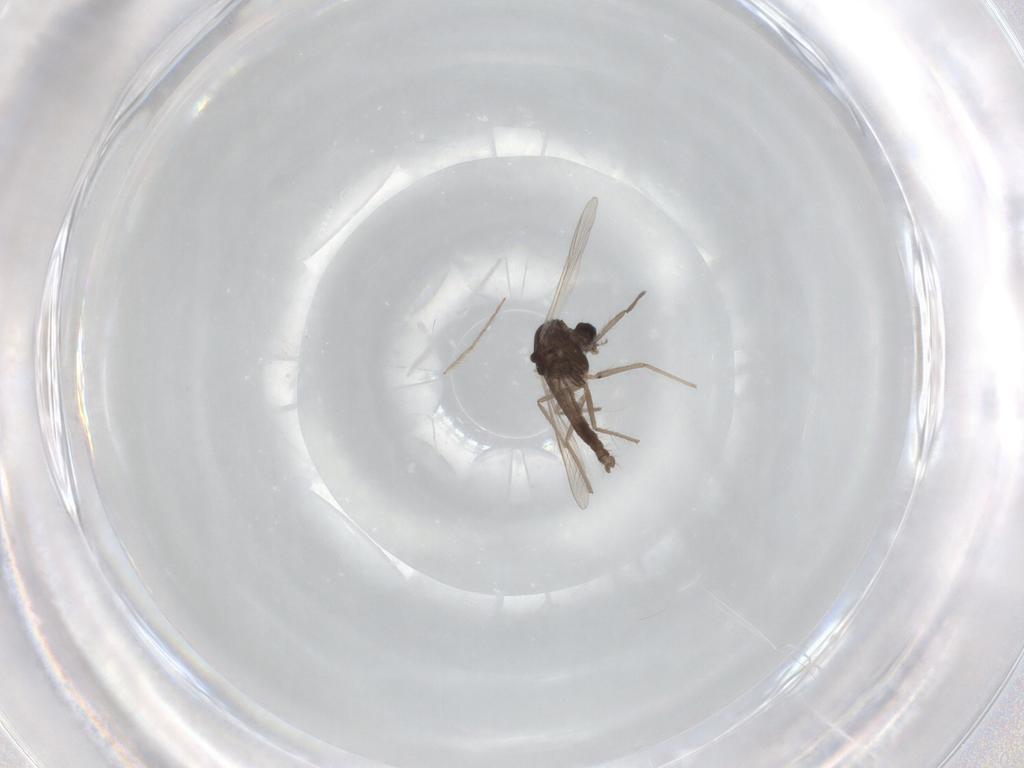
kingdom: Animalia
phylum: Arthropoda
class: Insecta
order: Diptera
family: Chironomidae
